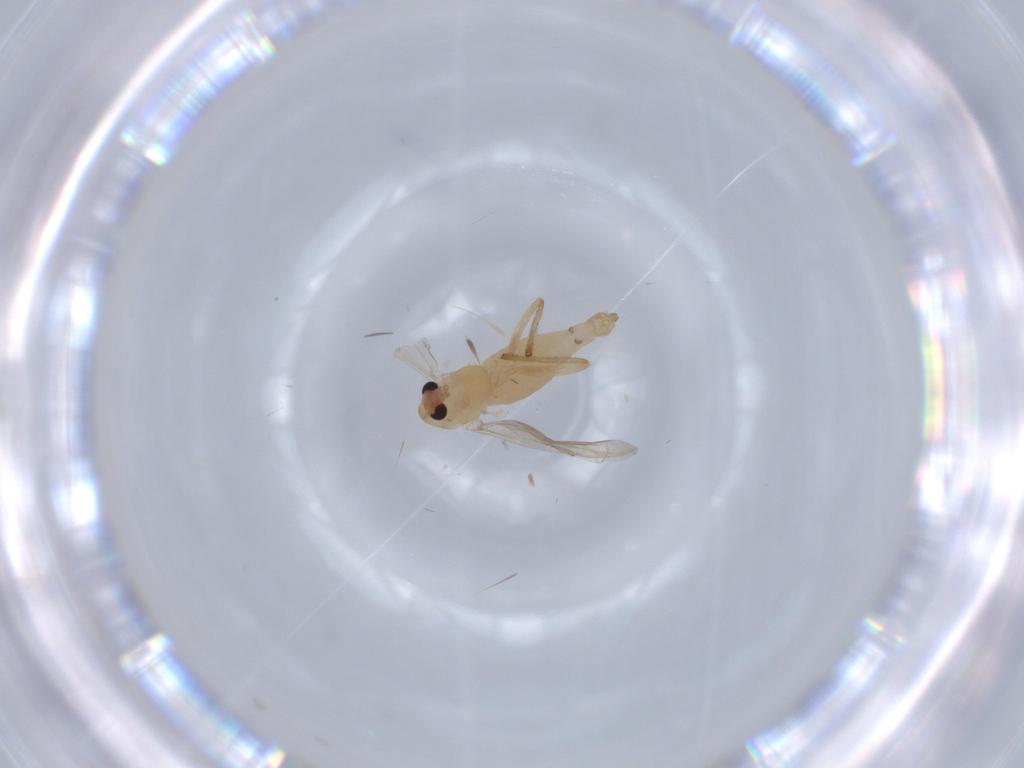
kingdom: Animalia
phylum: Arthropoda
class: Insecta
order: Diptera
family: Chironomidae
